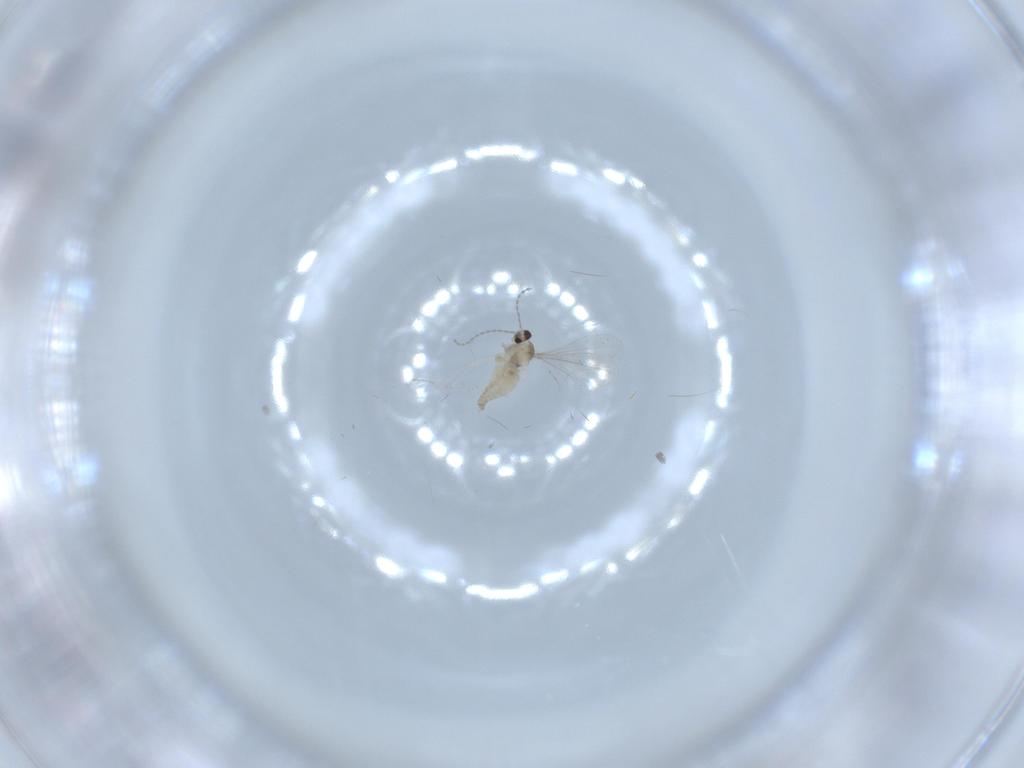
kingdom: Animalia
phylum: Arthropoda
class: Insecta
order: Diptera
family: Chironomidae
